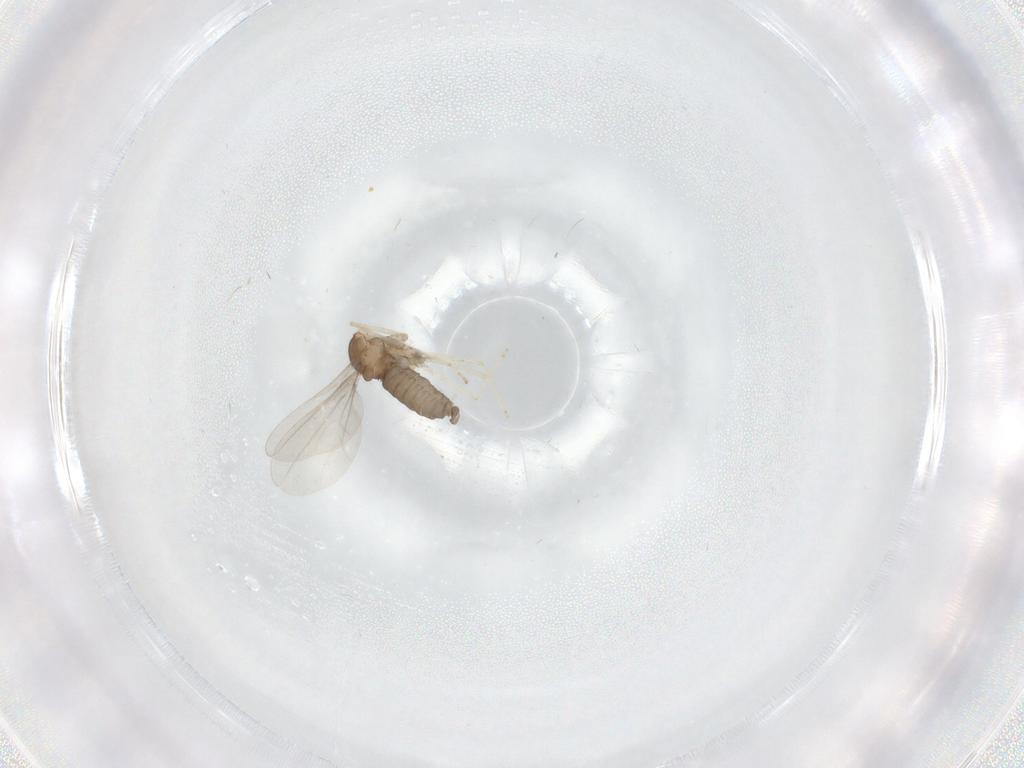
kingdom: Animalia
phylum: Arthropoda
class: Insecta
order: Diptera
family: Cecidomyiidae
